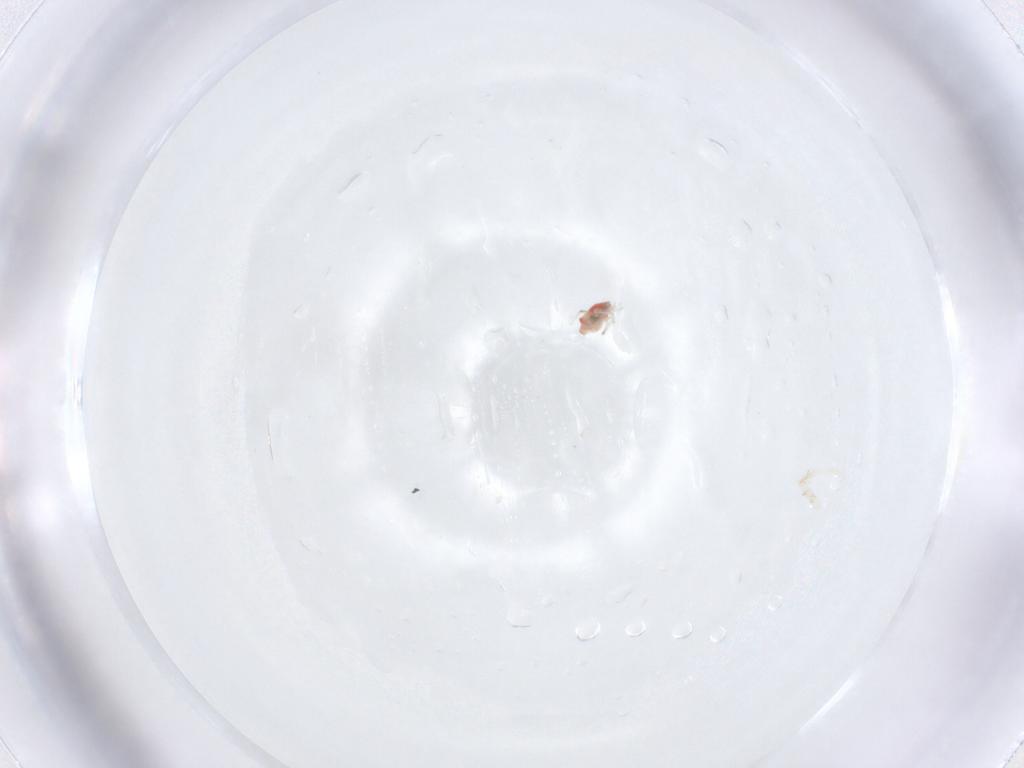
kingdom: Animalia
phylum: Arthropoda
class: Collembola
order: Symphypleona
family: Bourletiellidae
